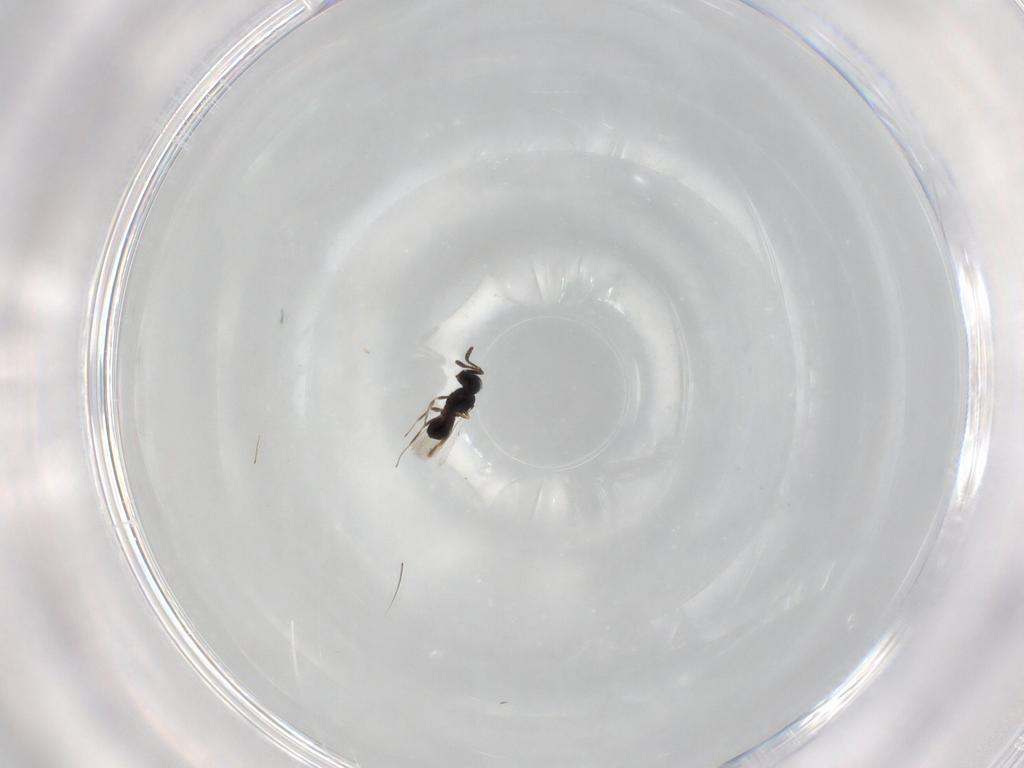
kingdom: Animalia
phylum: Arthropoda
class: Insecta
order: Hymenoptera
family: Scelionidae
